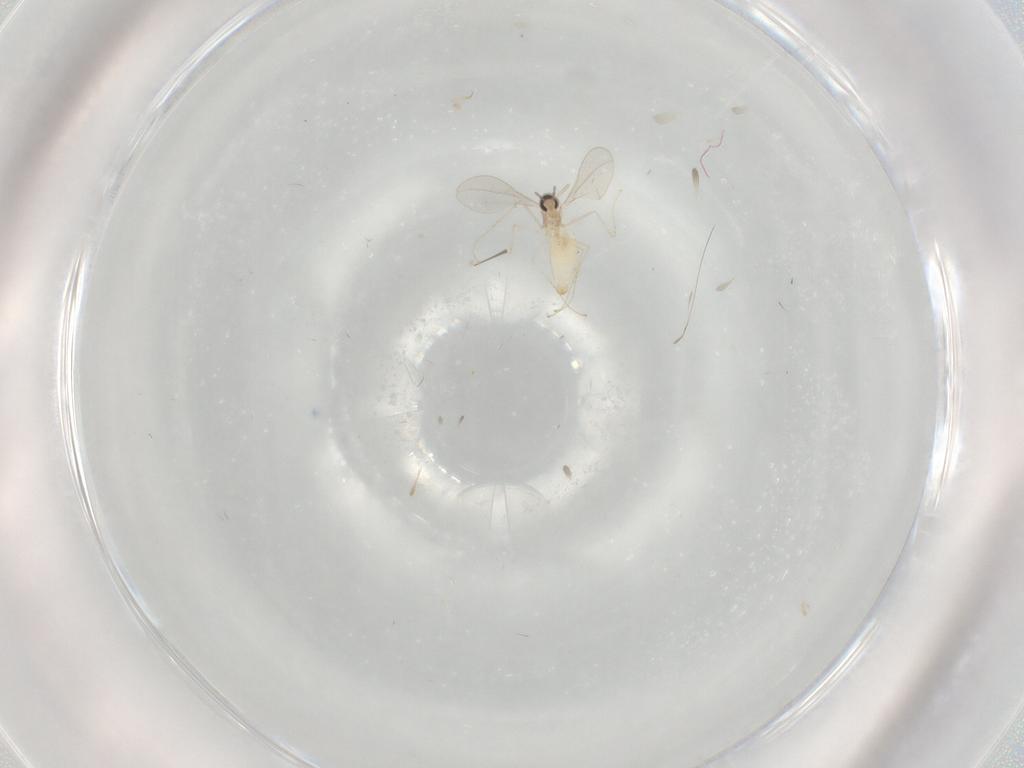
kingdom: Animalia
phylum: Arthropoda
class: Insecta
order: Diptera
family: Cecidomyiidae
